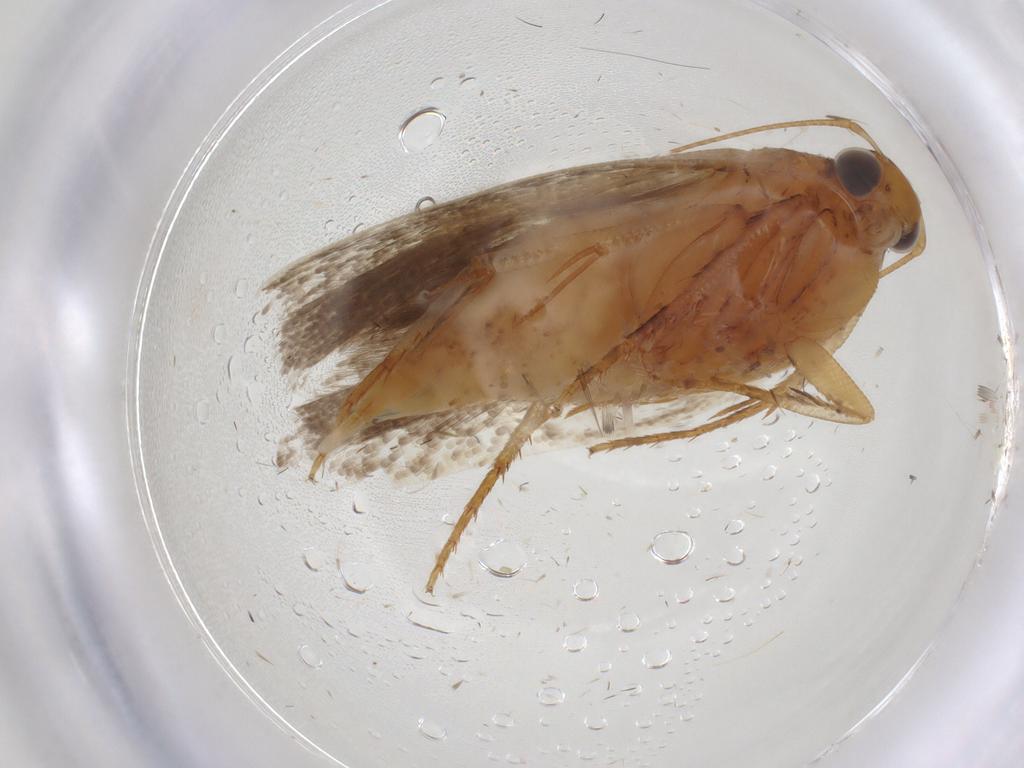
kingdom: Animalia
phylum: Arthropoda
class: Insecta
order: Lepidoptera
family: Gelechiidae
